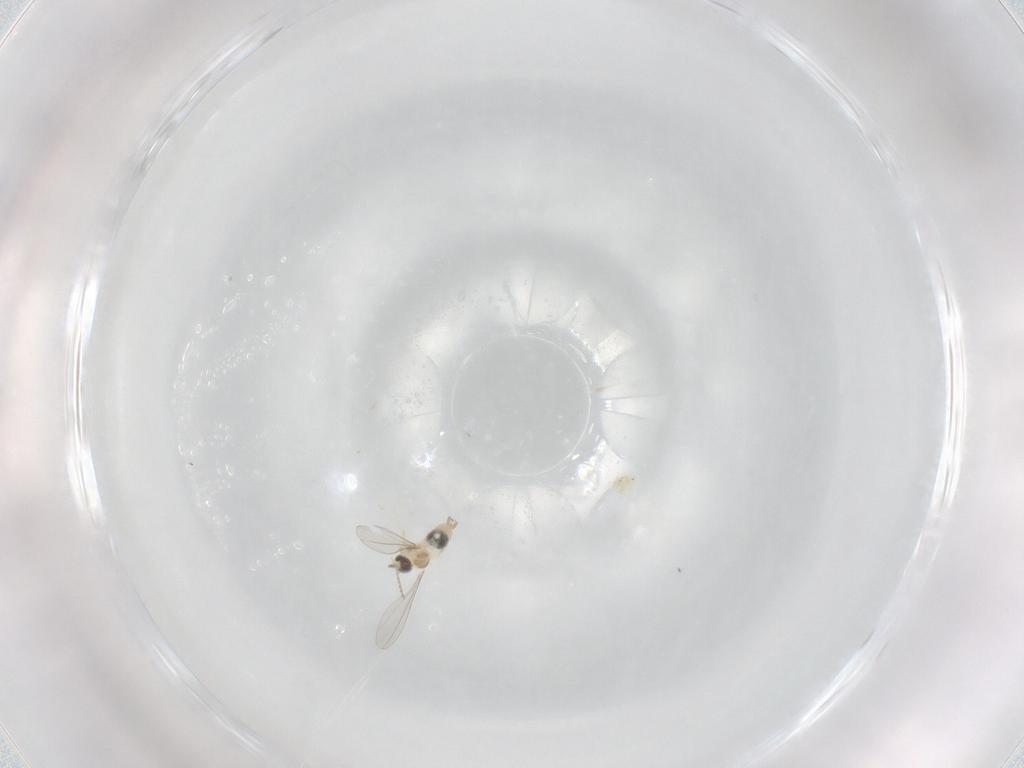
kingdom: Animalia
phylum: Arthropoda
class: Insecta
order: Diptera
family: Cecidomyiidae
